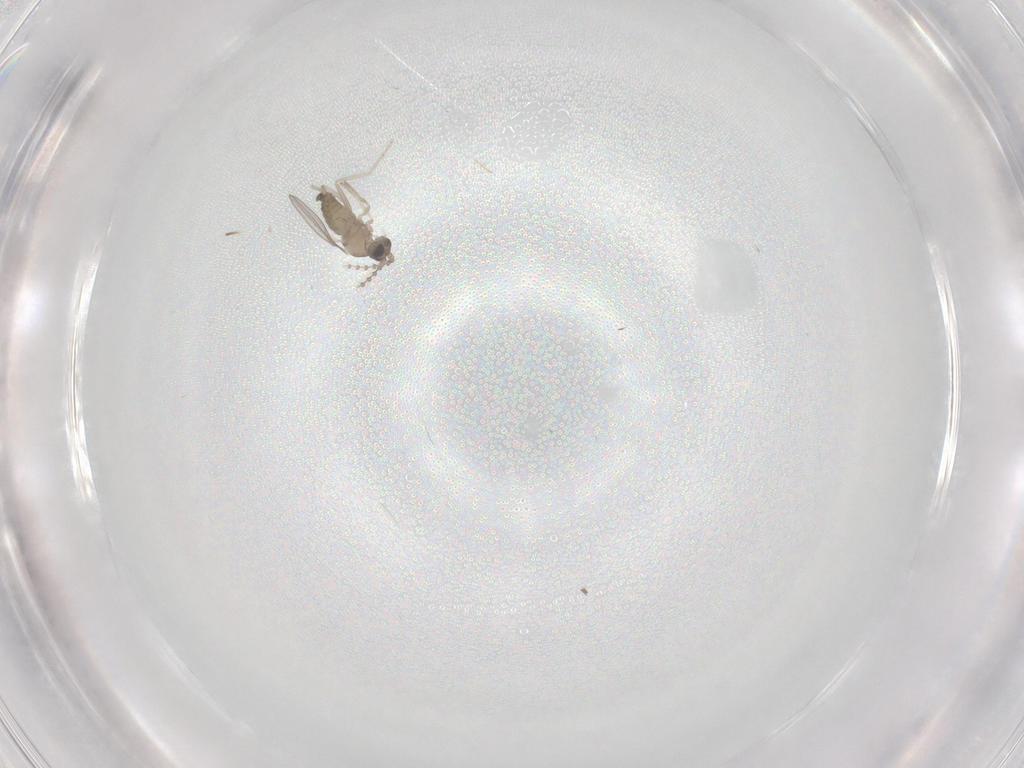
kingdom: Animalia
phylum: Arthropoda
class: Insecta
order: Diptera
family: Cecidomyiidae
